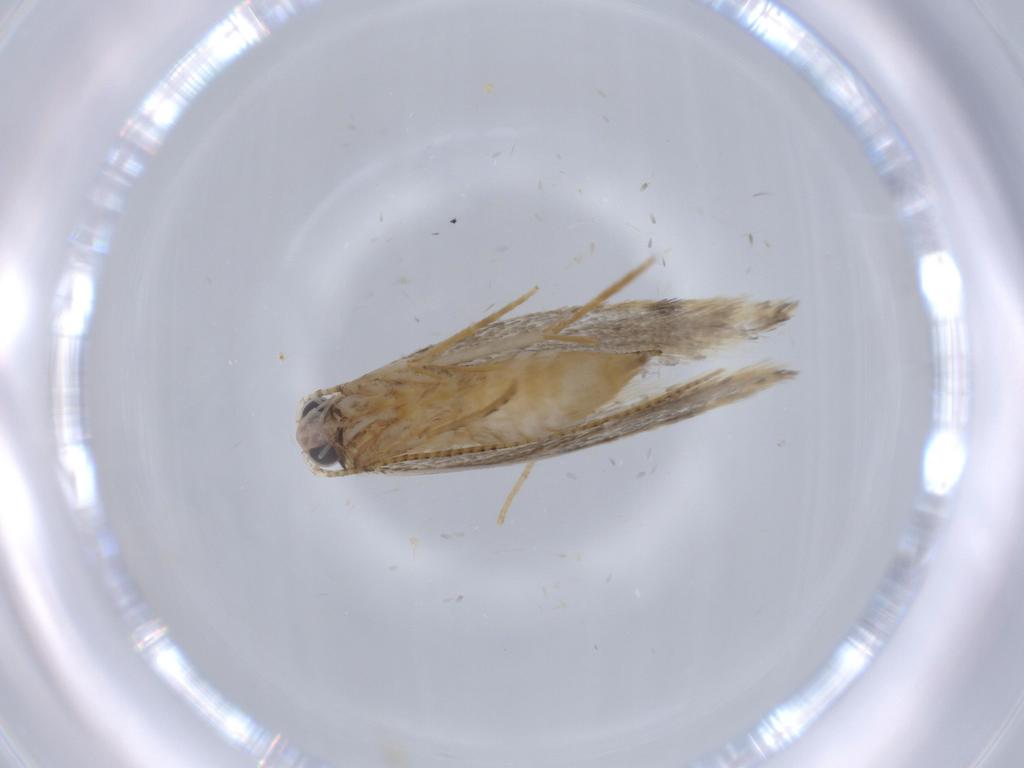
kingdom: Animalia
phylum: Arthropoda
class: Insecta
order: Lepidoptera
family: Tineidae
